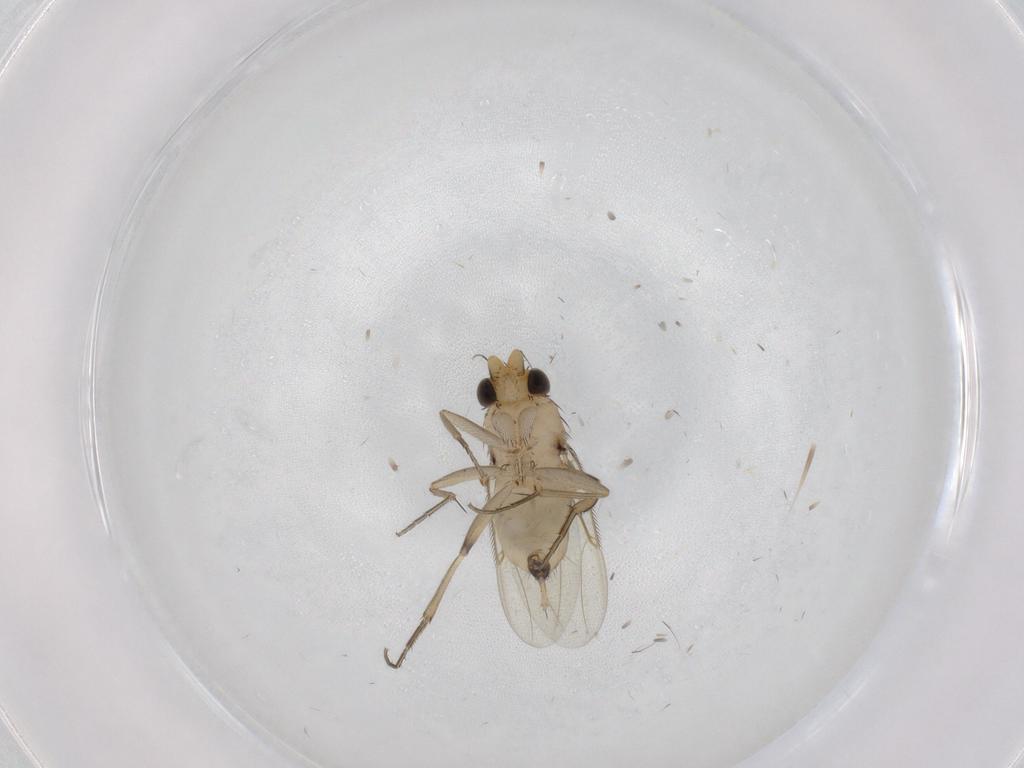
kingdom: Animalia
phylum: Arthropoda
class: Insecta
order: Diptera
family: Phoridae
